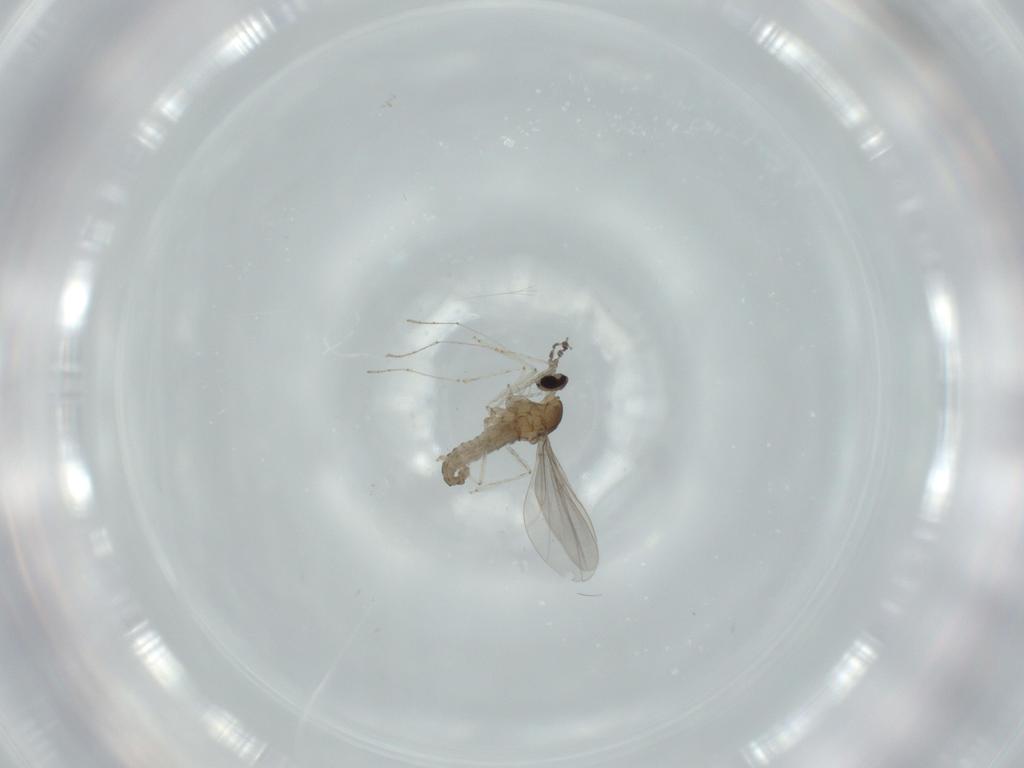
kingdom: Animalia
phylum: Arthropoda
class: Insecta
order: Diptera
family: Cecidomyiidae
